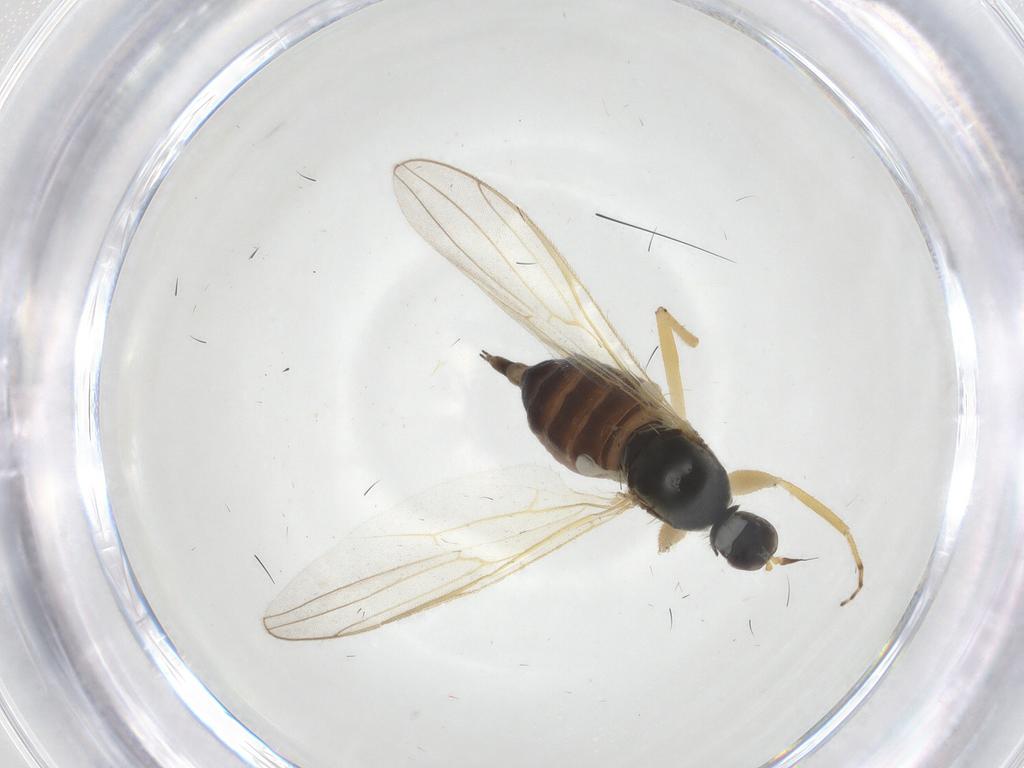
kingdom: Animalia
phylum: Arthropoda
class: Insecta
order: Diptera
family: Hybotidae
